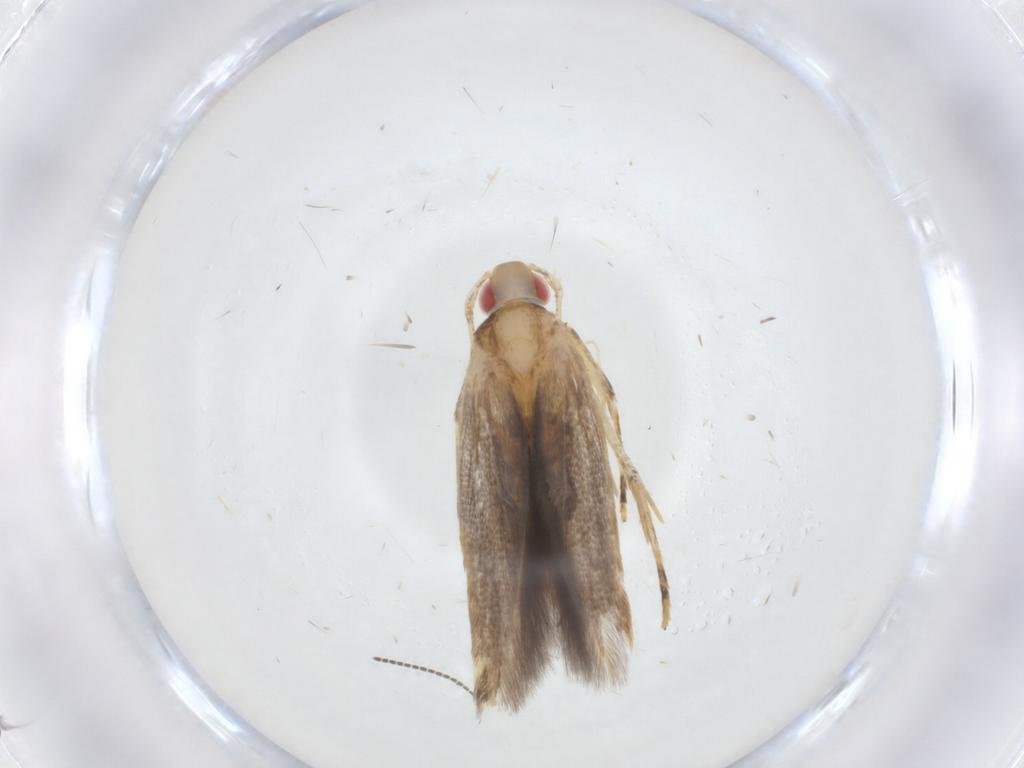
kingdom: Animalia
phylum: Arthropoda
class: Insecta
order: Lepidoptera
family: Cosmopterigidae
